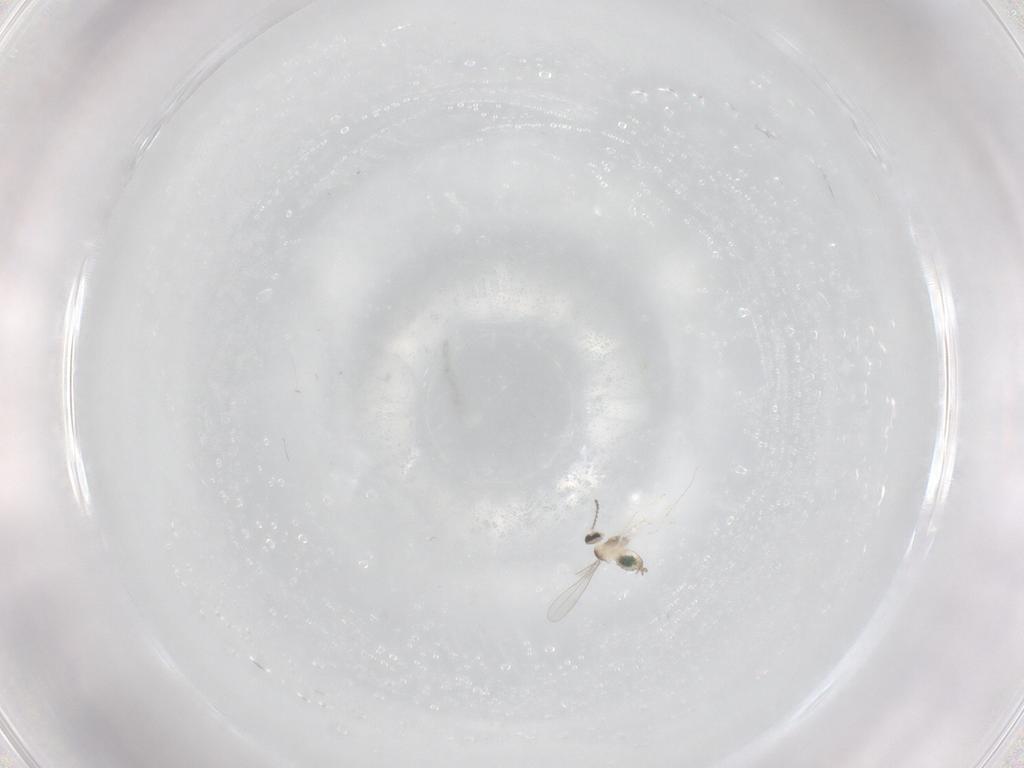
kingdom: Animalia
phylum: Arthropoda
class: Insecta
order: Diptera
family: Cecidomyiidae
